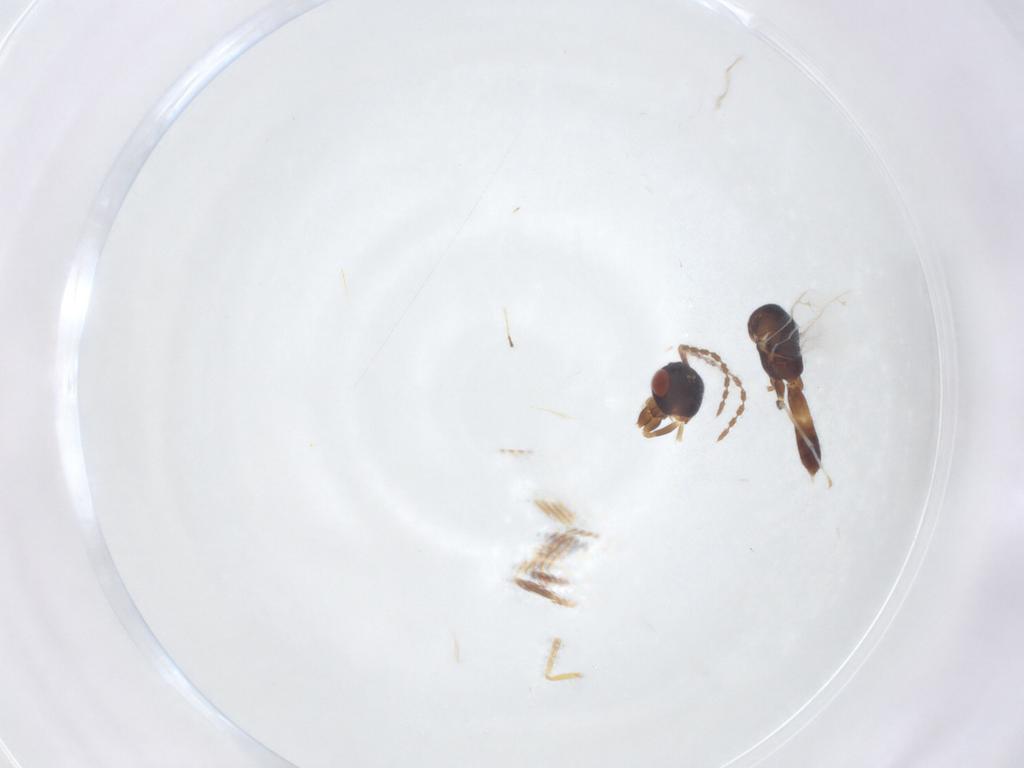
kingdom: Animalia
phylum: Arthropoda
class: Insecta
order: Hymenoptera
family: Pteromalidae
